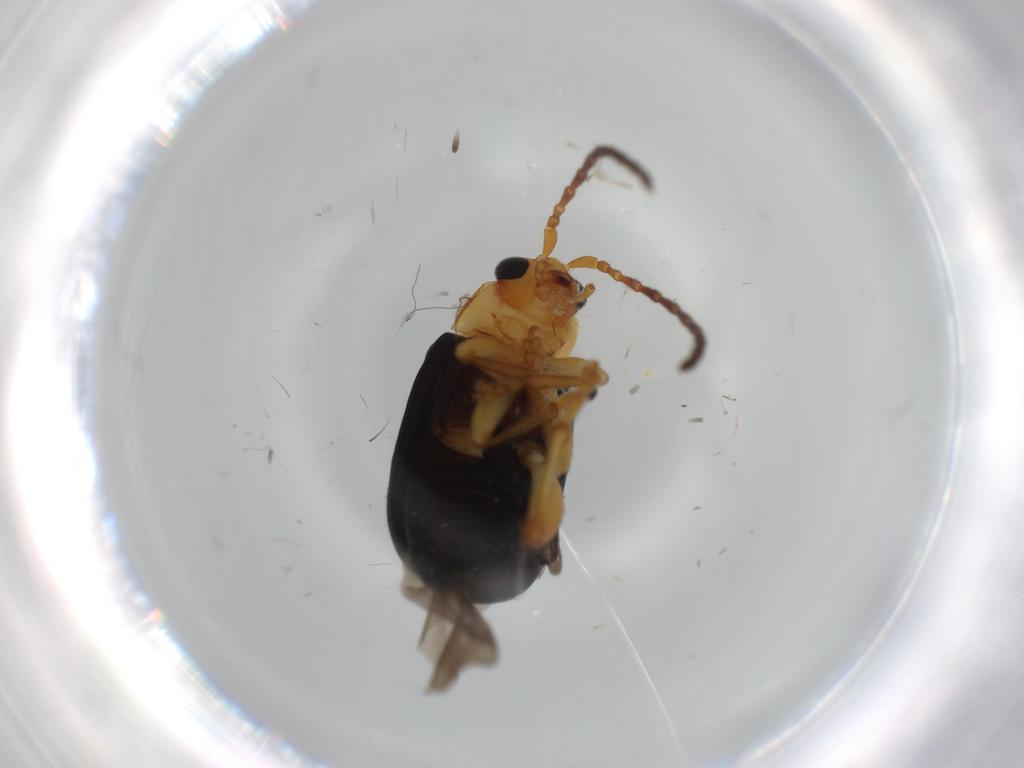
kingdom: Animalia
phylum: Arthropoda
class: Insecta
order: Coleoptera
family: Chrysomelidae
